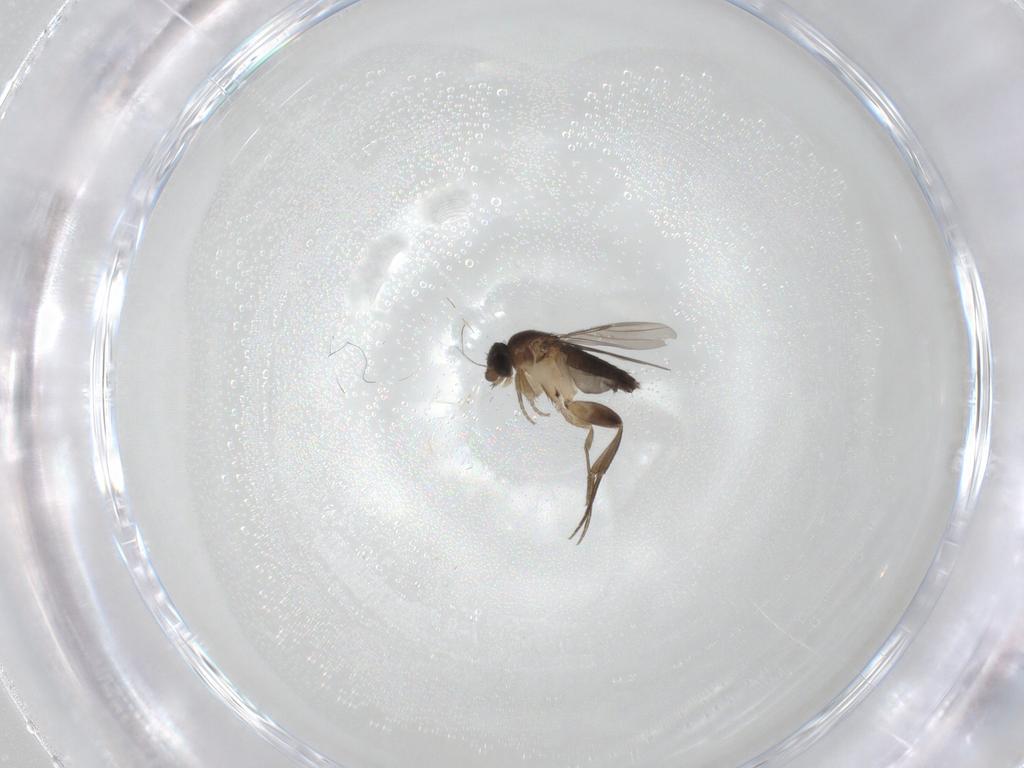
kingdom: Animalia
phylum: Arthropoda
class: Insecta
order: Diptera
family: Phoridae
